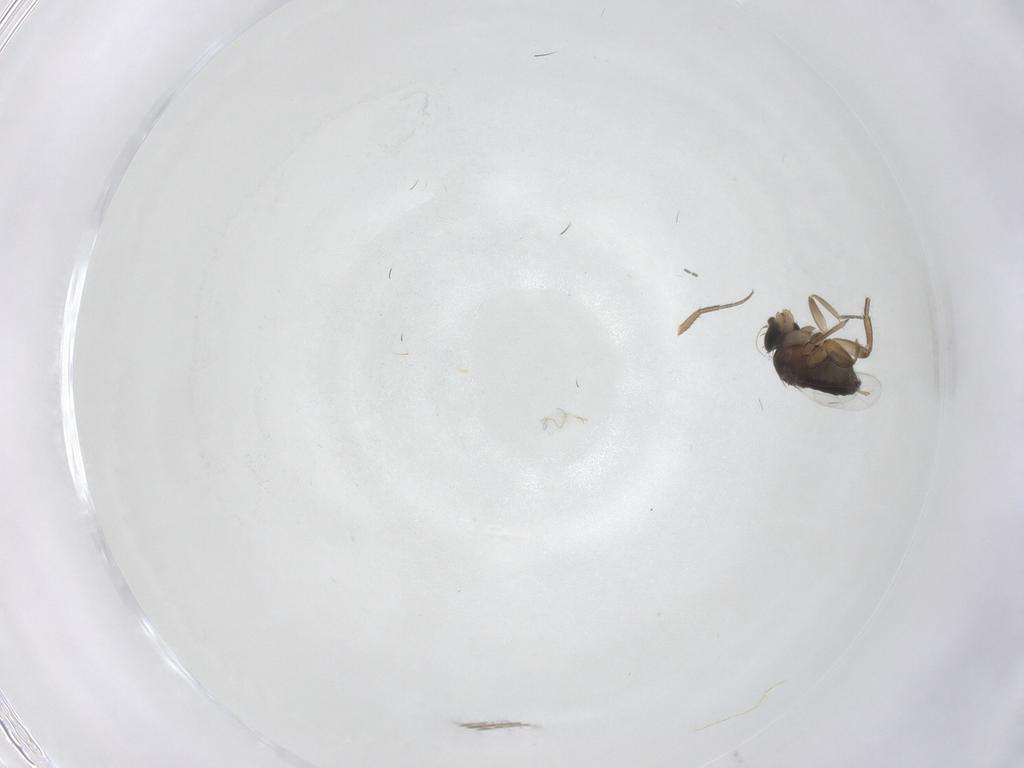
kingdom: Animalia
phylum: Arthropoda
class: Insecta
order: Diptera
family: Phoridae
